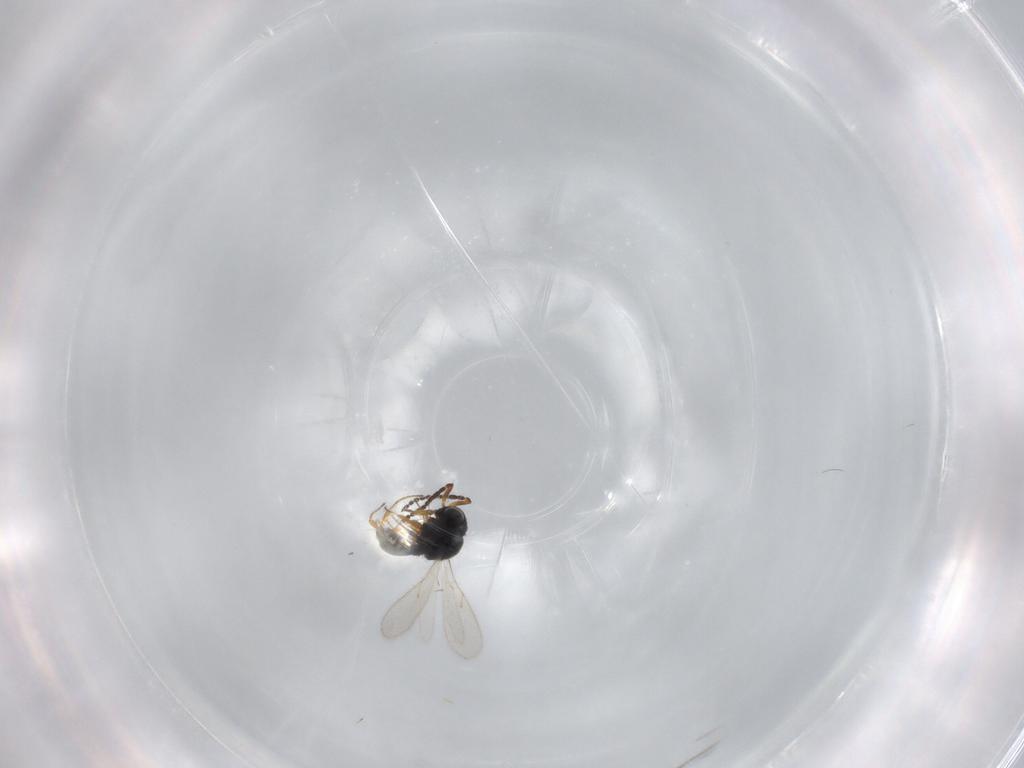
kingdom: Animalia
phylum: Arthropoda
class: Insecta
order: Hymenoptera
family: Scelionidae
